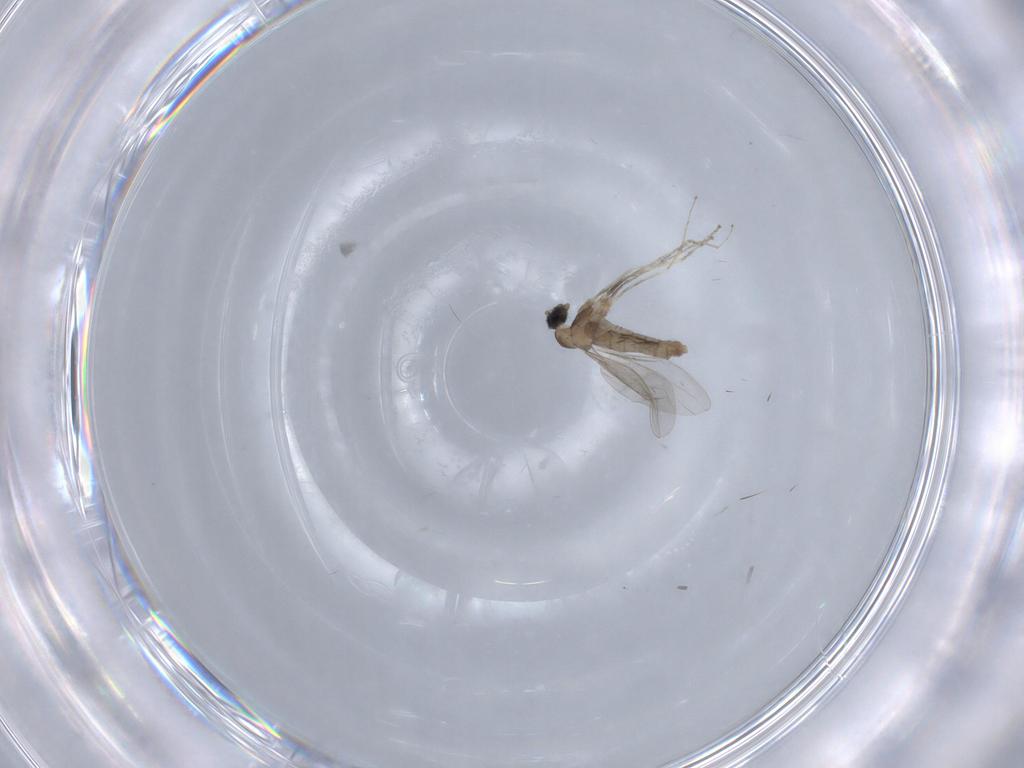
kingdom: Animalia
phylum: Arthropoda
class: Insecta
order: Diptera
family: Cecidomyiidae
